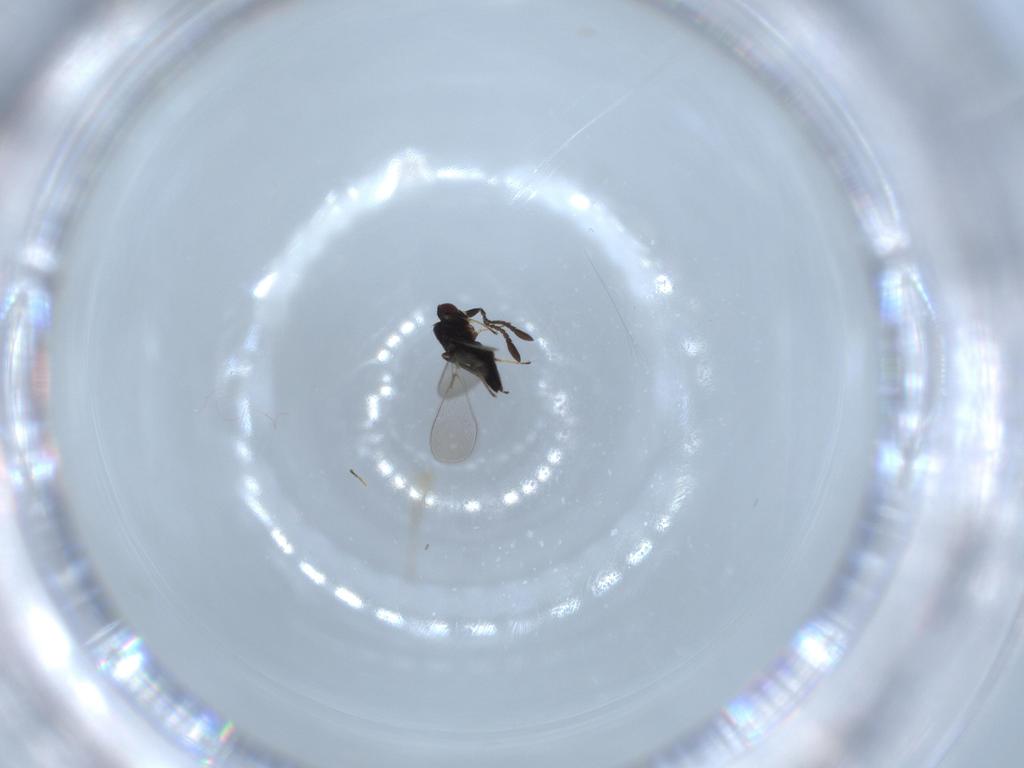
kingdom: Animalia
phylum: Arthropoda
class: Insecta
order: Hymenoptera
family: Mymaridae
